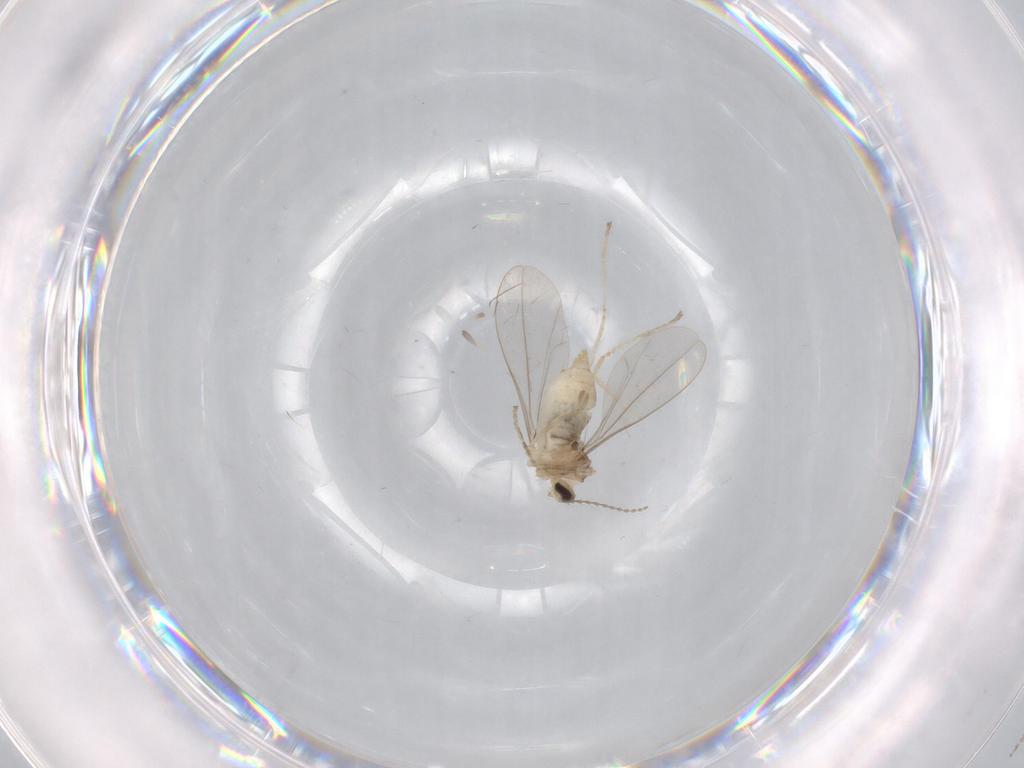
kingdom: Animalia
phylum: Arthropoda
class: Insecta
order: Diptera
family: Cecidomyiidae
